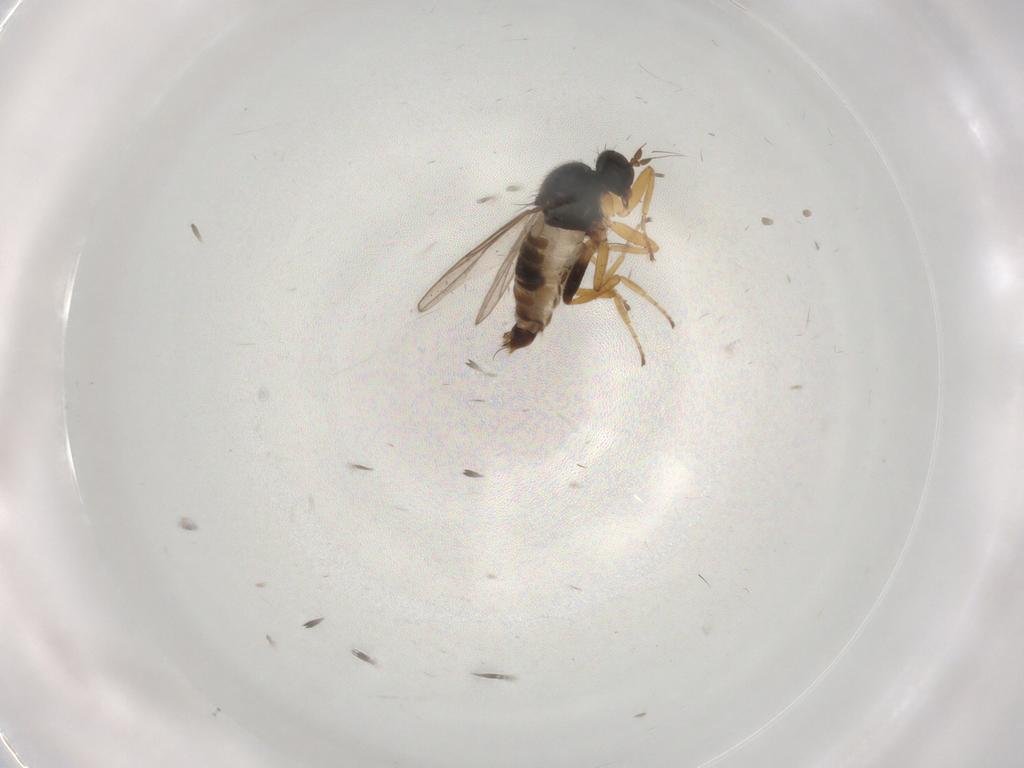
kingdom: Animalia
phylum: Arthropoda
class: Insecta
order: Diptera
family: Hybotidae
